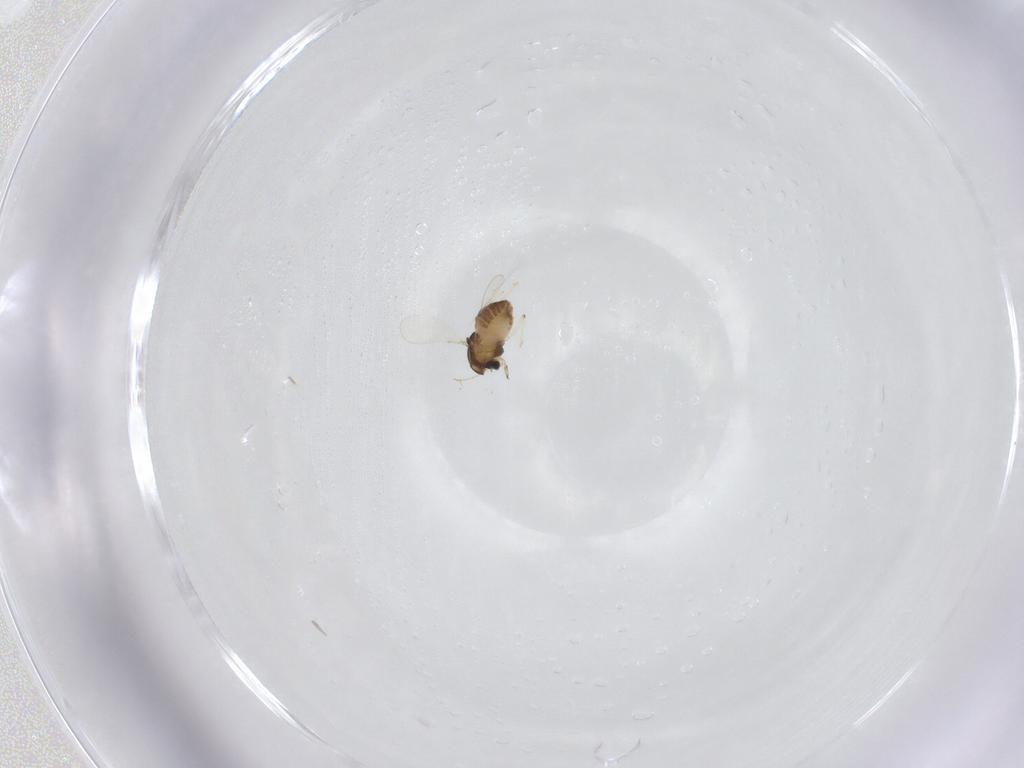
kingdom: Animalia
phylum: Arthropoda
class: Insecta
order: Diptera
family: Chironomidae
